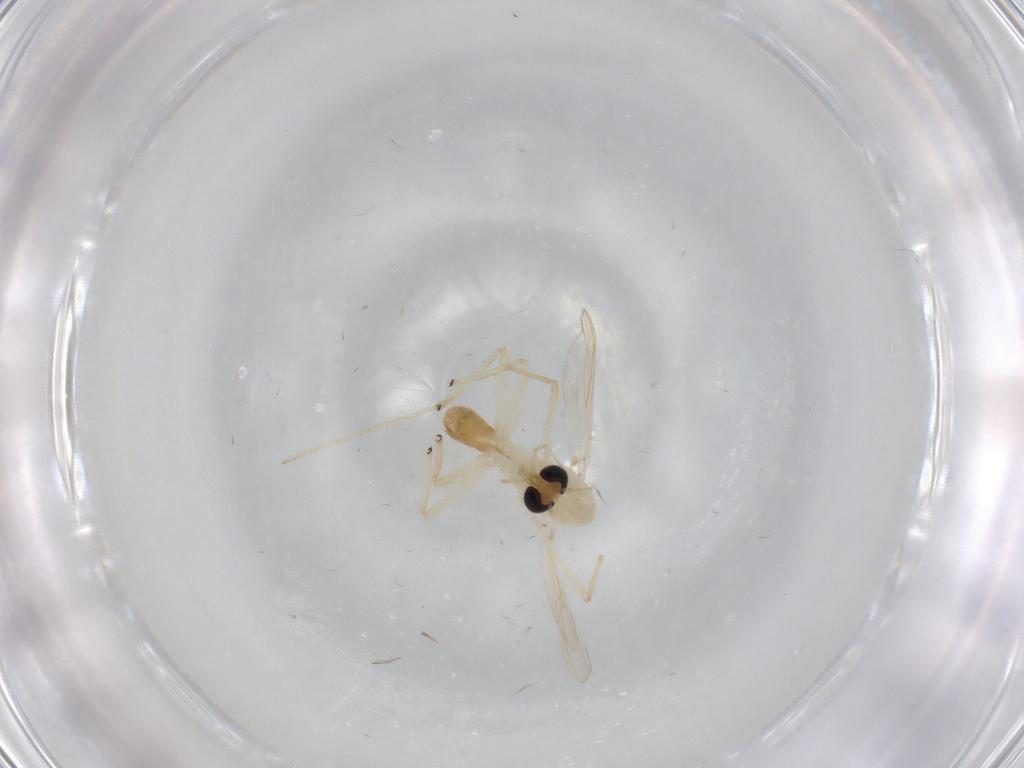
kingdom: Animalia
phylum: Arthropoda
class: Insecta
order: Diptera
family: Chironomidae
